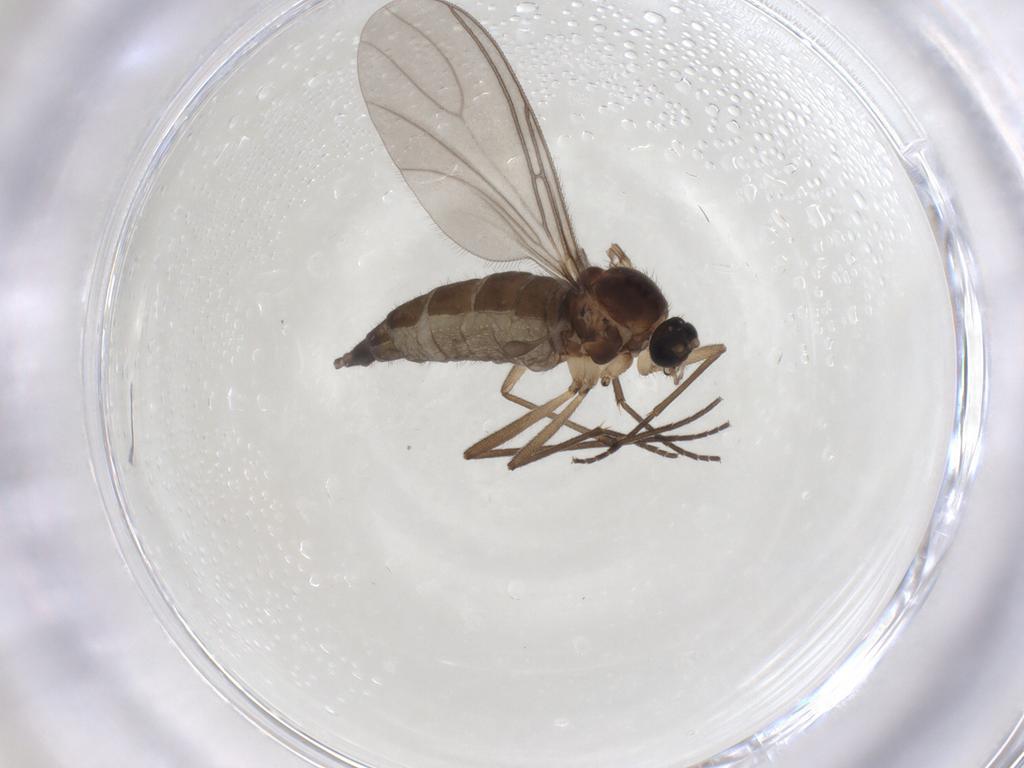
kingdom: Animalia
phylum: Arthropoda
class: Insecta
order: Diptera
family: Sciaridae
